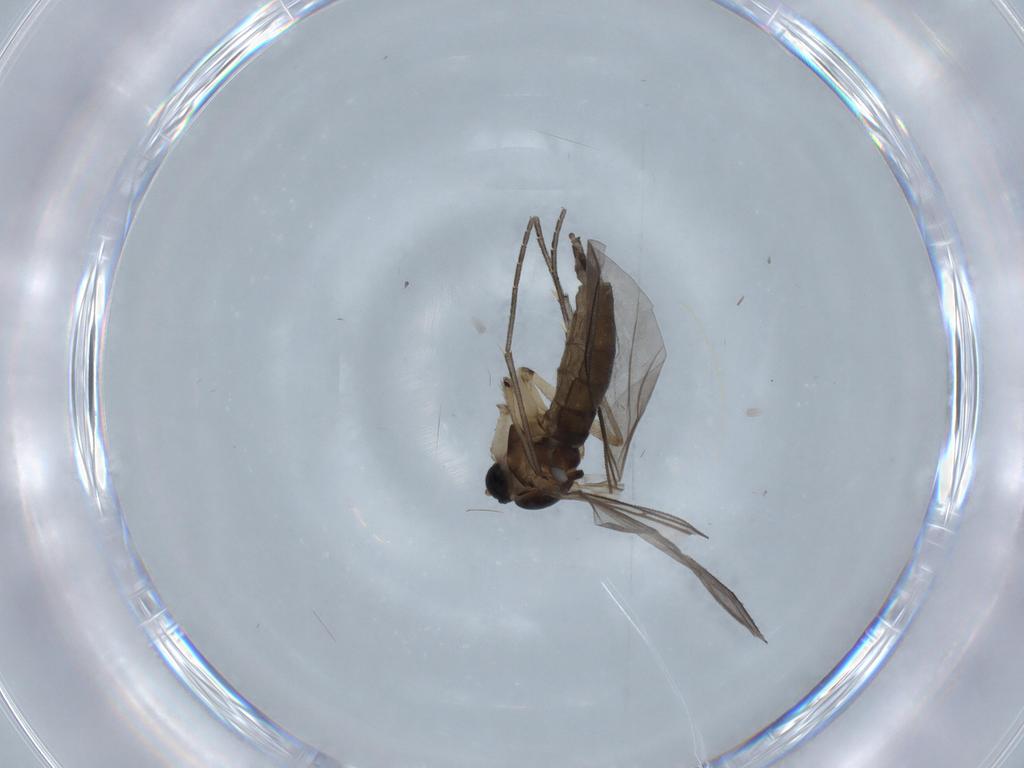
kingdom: Animalia
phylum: Arthropoda
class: Insecta
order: Diptera
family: Sciaridae
